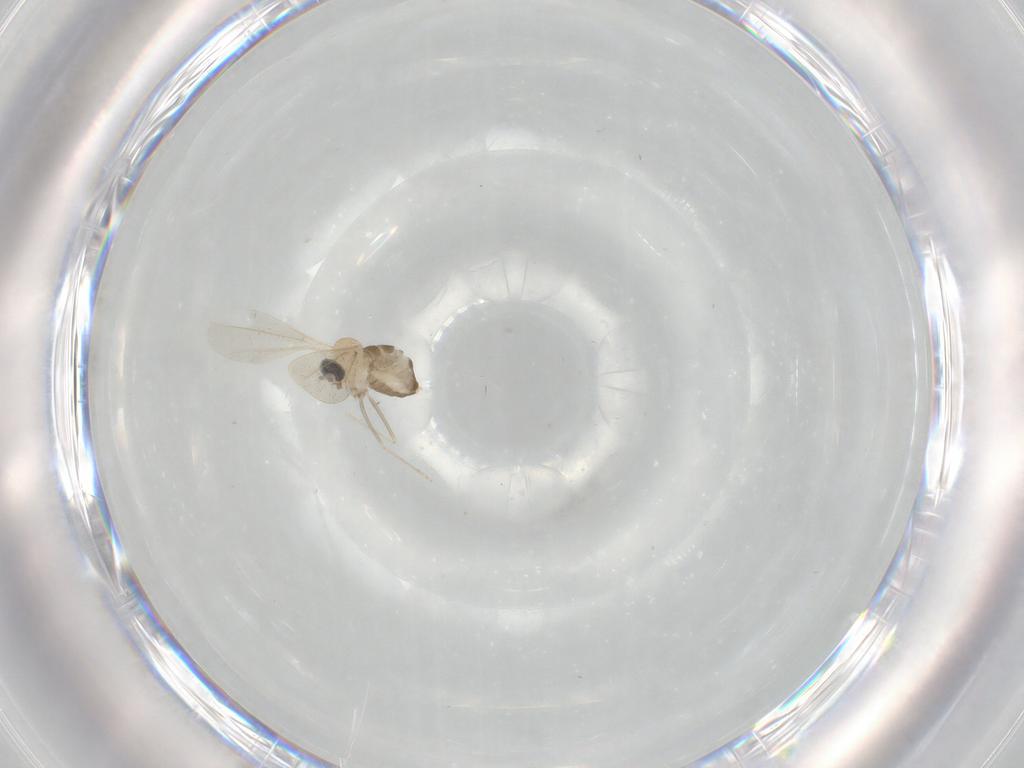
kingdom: Animalia
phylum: Arthropoda
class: Insecta
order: Diptera
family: Cecidomyiidae
